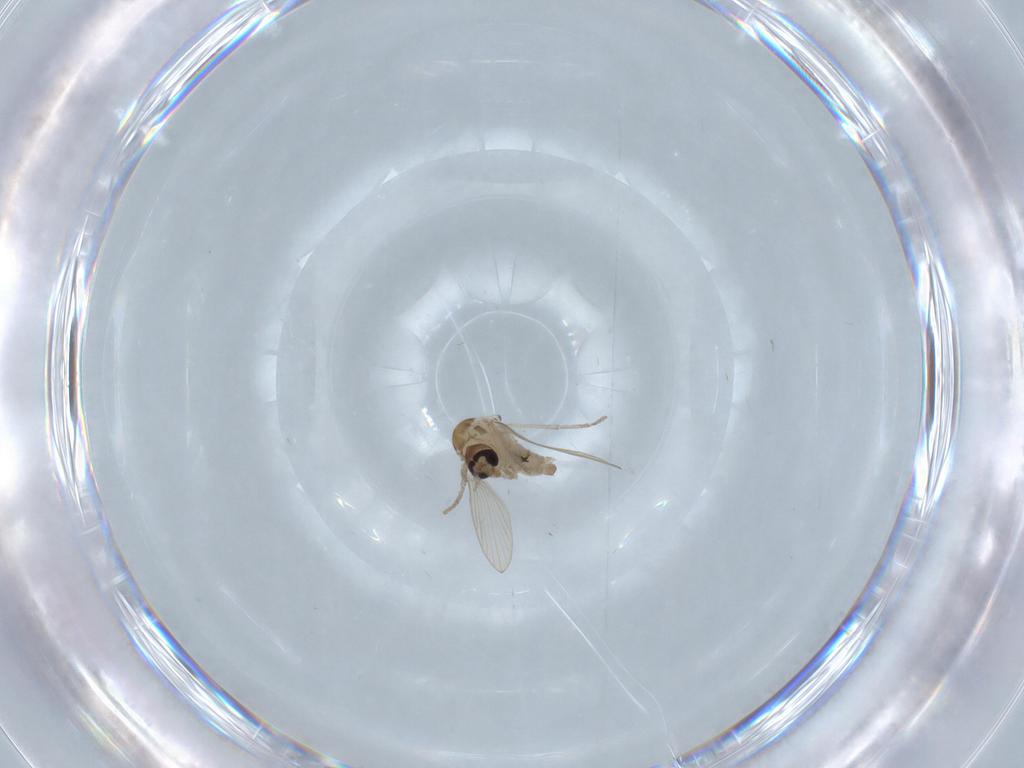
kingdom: Animalia
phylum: Arthropoda
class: Insecta
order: Diptera
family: Psychodidae
